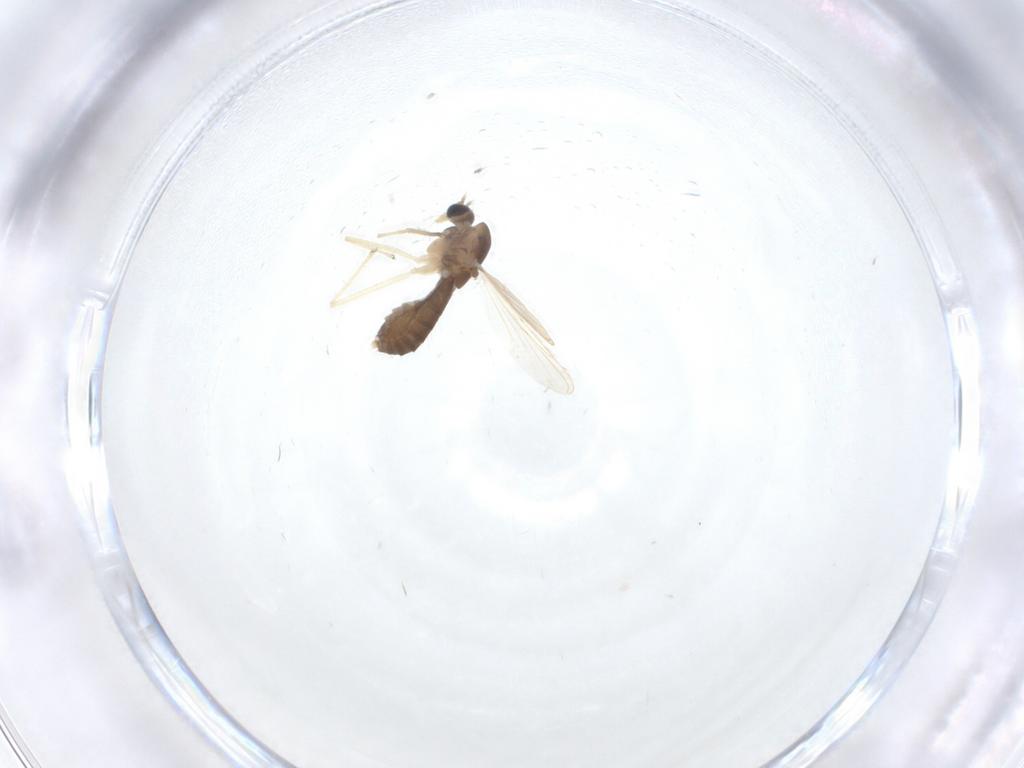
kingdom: Animalia
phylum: Arthropoda
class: Insecta
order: Diptera
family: Chironomidae
